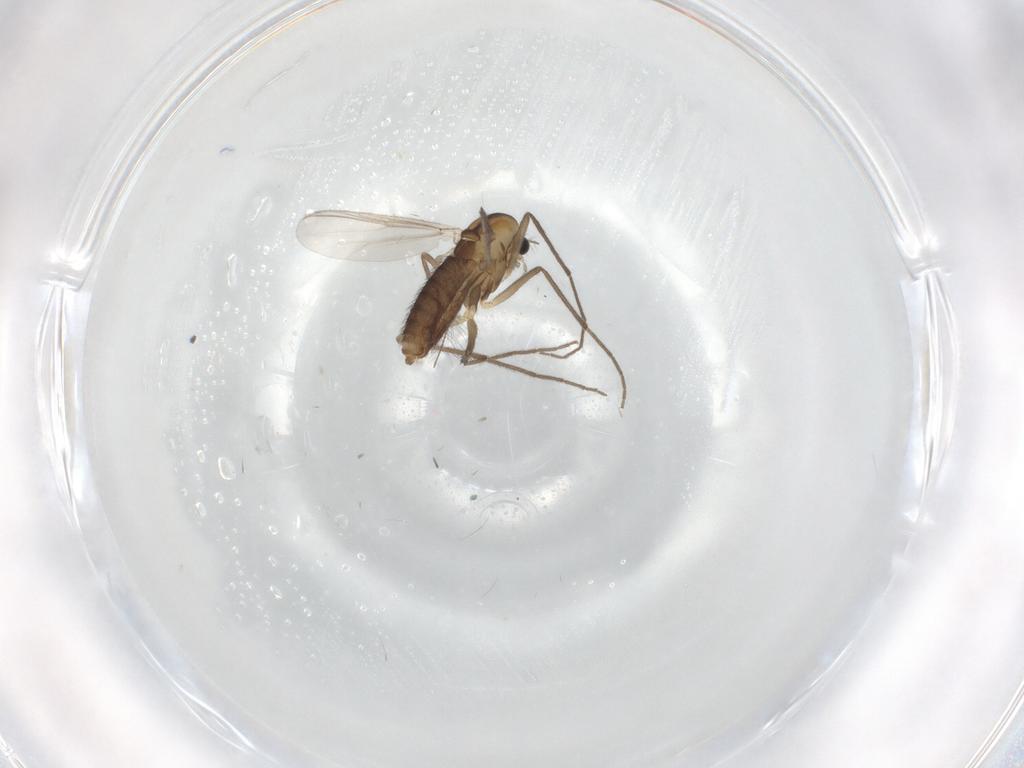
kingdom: Animalia
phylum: Arthropoda
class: Insecta
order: Diptera
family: Chironomidae
